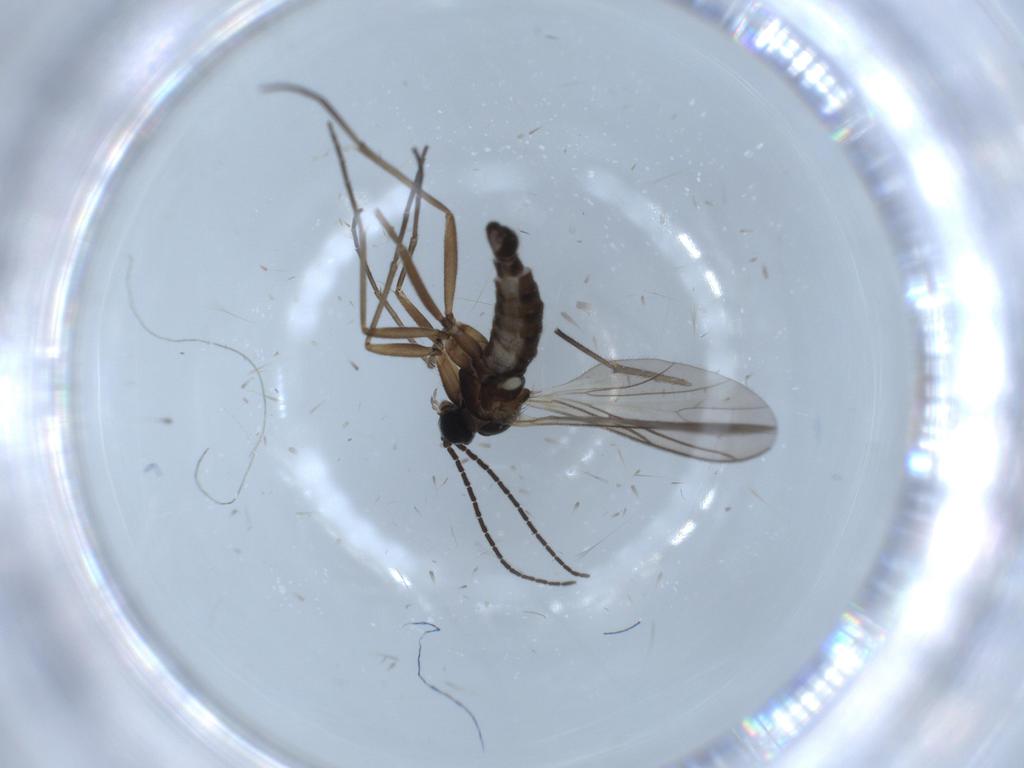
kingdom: Animalia
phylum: Arthropoda
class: Insecta
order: Diptera
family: Sciaridae
